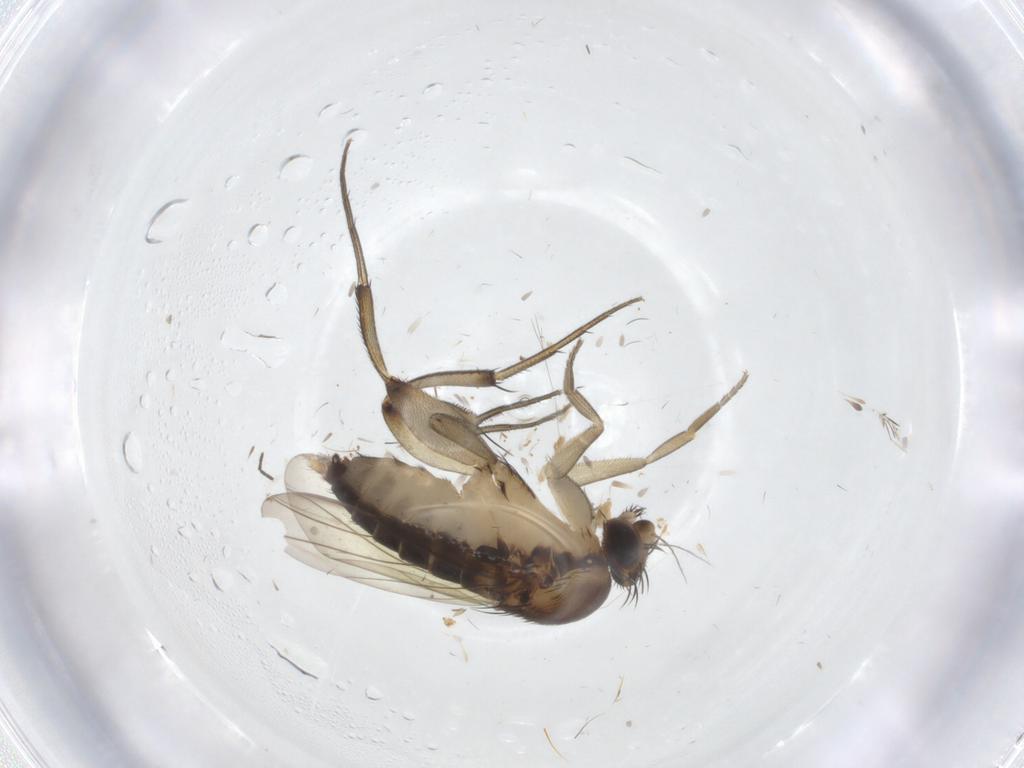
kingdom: Animalia
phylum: Arthropoda
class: Insecta
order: Diptera
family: Phoridae
